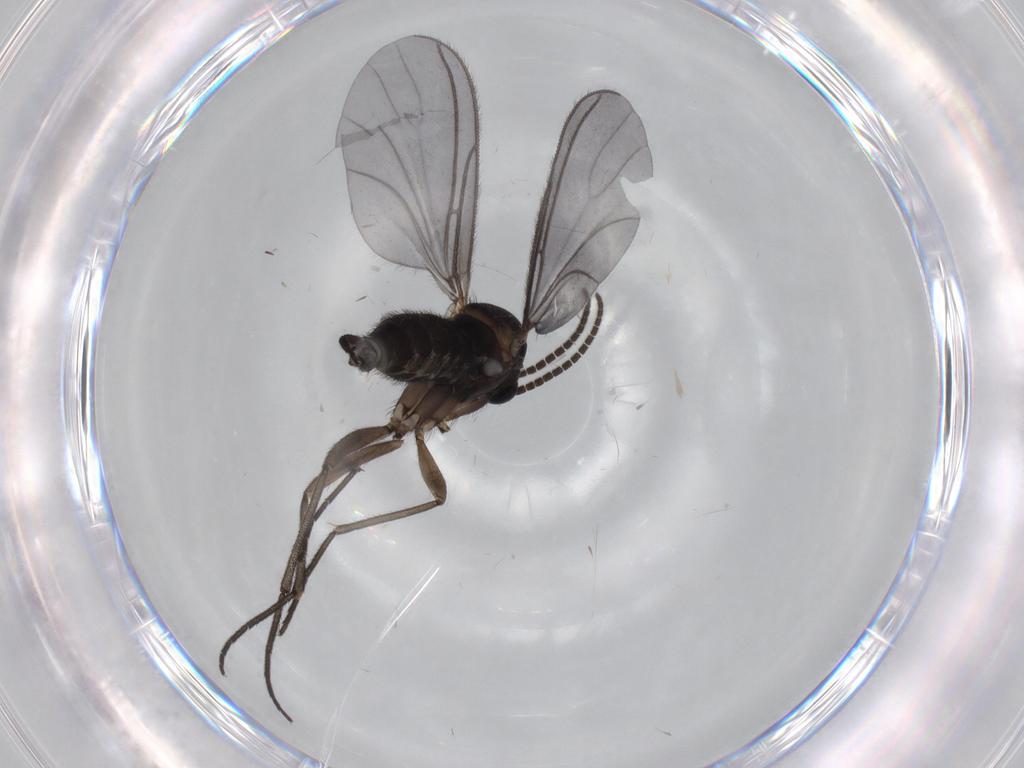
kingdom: Animalia
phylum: Arthropoda
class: Insecta
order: Diptera
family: Sciaridae
